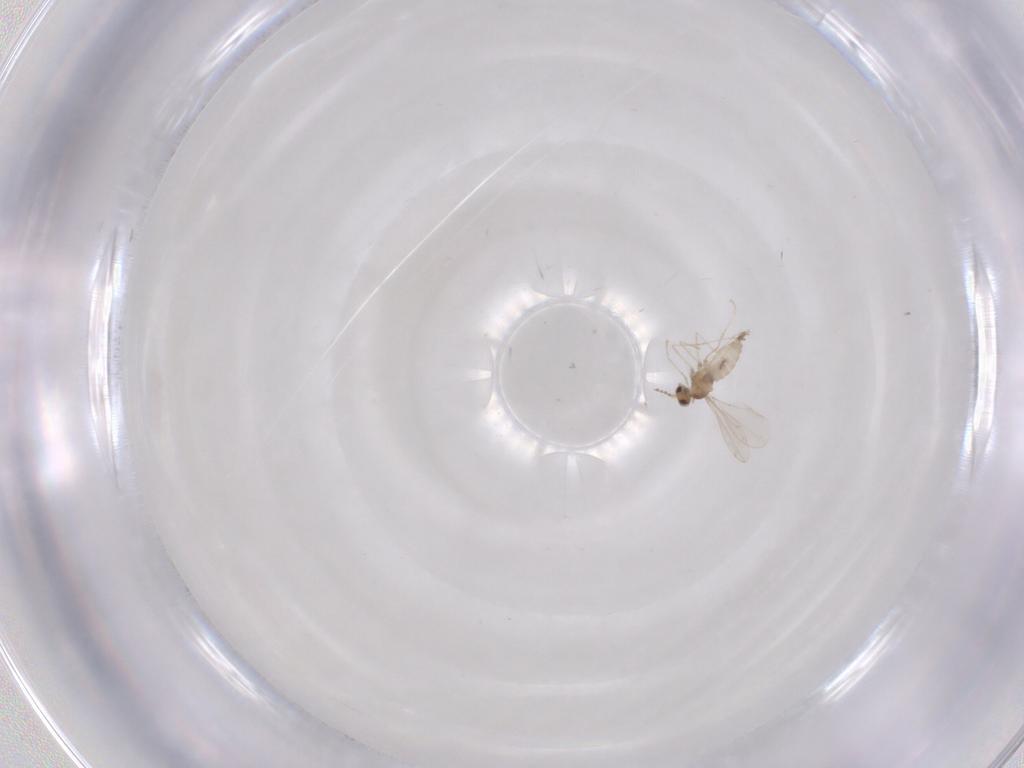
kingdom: Animalia
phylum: Arthropoda
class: Insecta
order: Diptera
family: Cecidomyiidae
